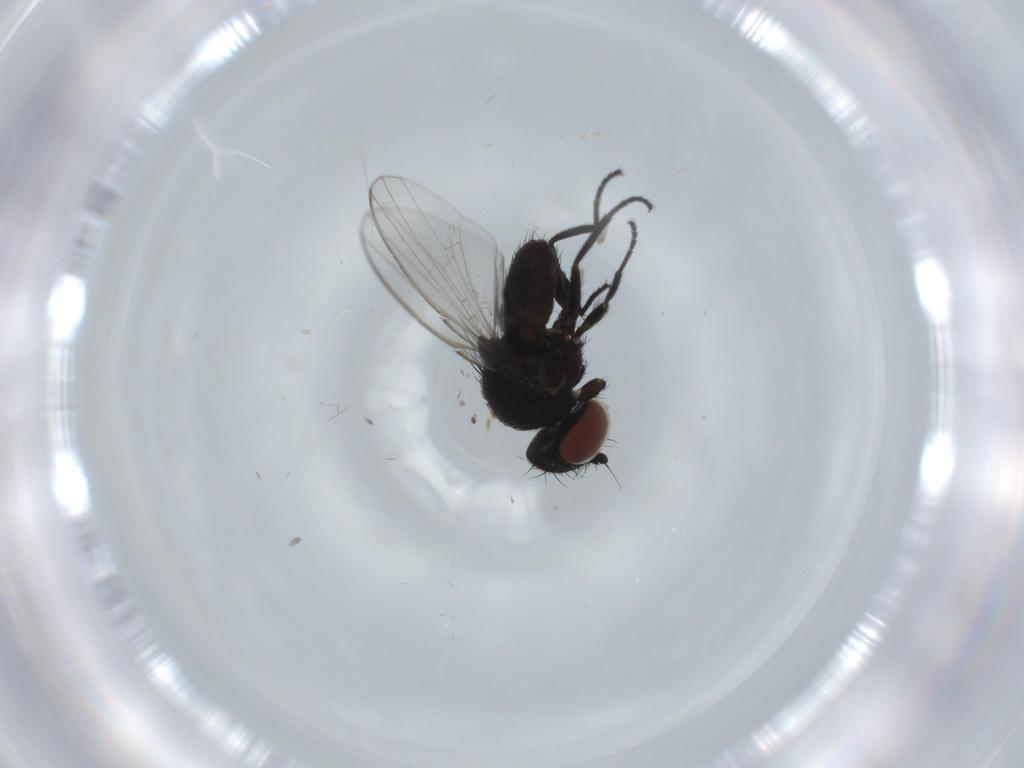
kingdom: Animalia
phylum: Arthropoda
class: Insecta
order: Diptera
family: Milichiidae
